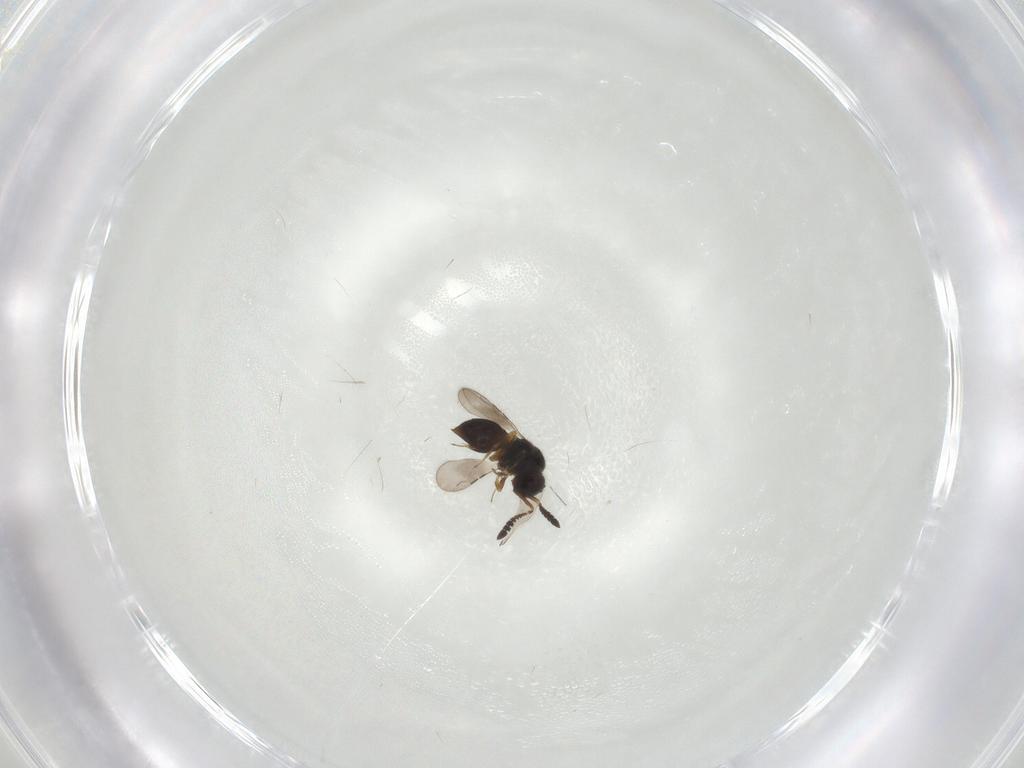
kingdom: Animalia
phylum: Arthropoda
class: Insecta
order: Hymenoptera
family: Ceraphronidae
